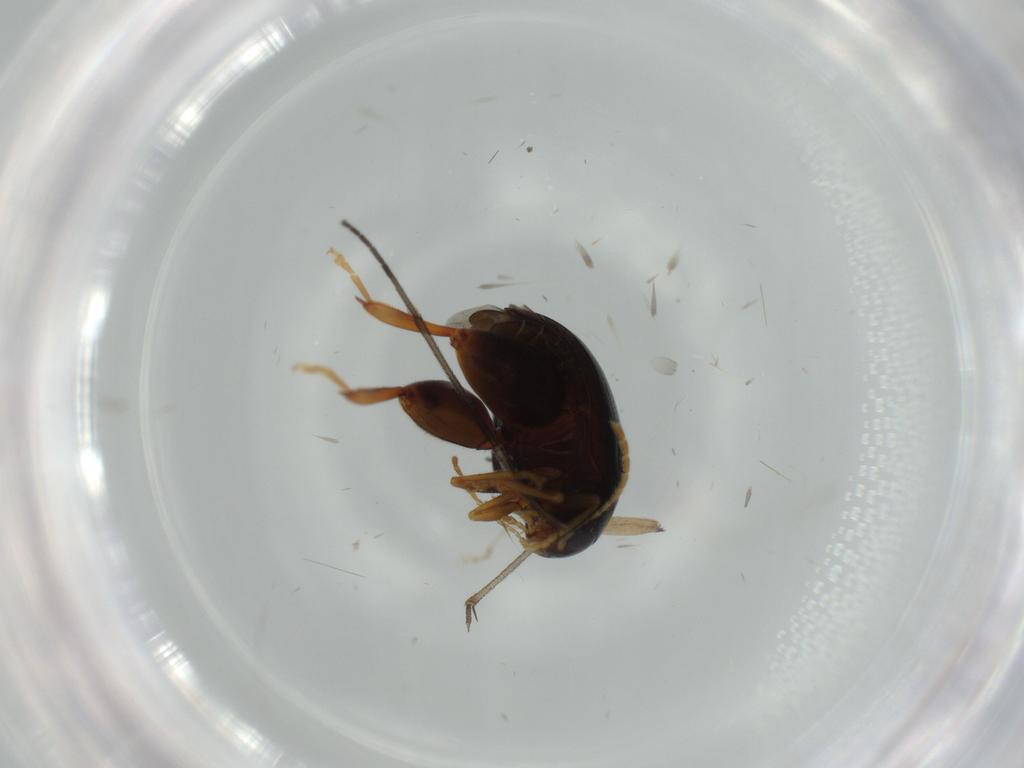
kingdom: Animalia
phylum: Arthropoda
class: Insecta
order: Coleoptera
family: Chrysomelidae
